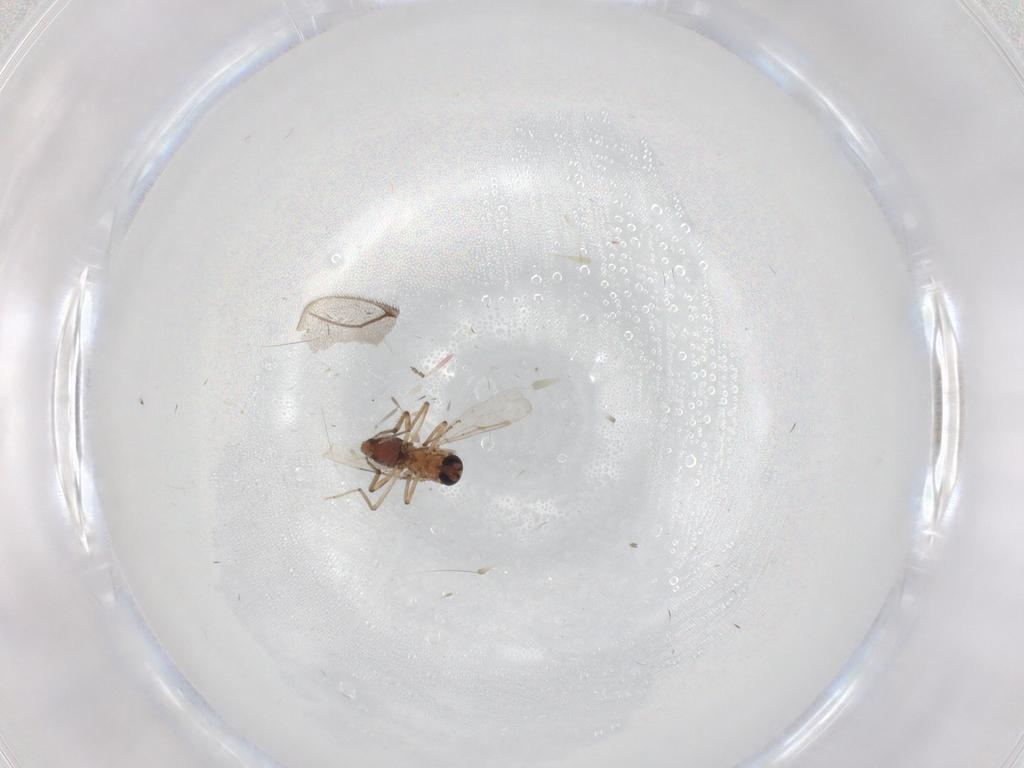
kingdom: Animalia
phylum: Arthropoda
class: Insecta
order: Diptera
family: Ceratopogonidae
